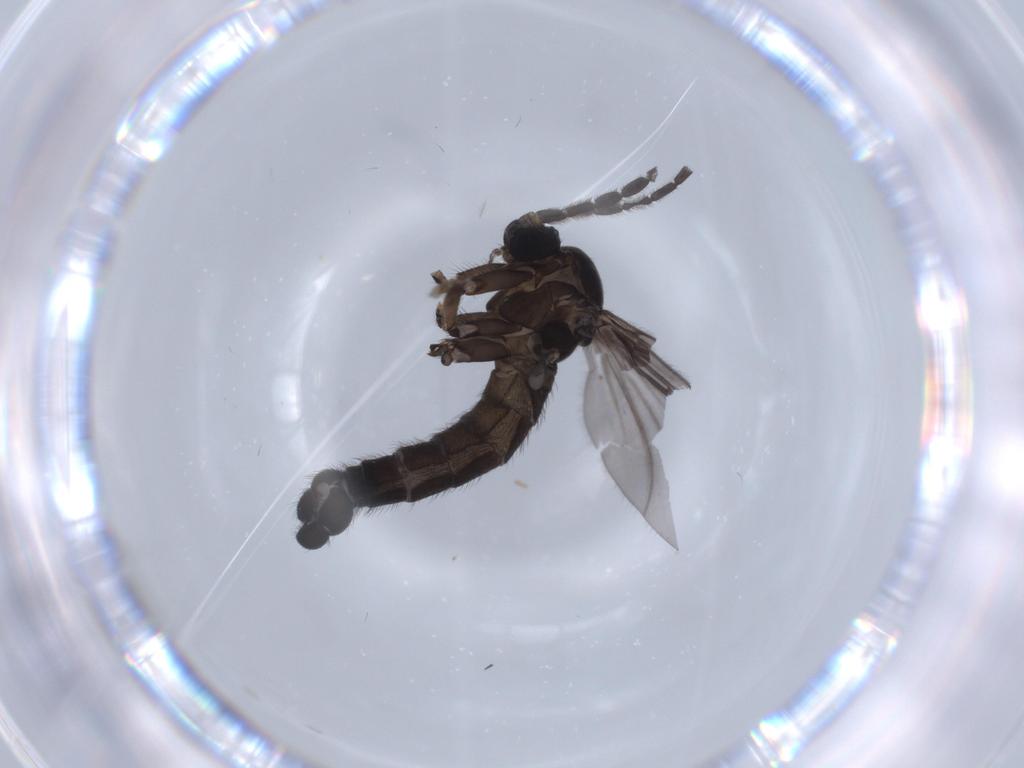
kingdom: Animalia
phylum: Arthropoda
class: Insecta
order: Diptera
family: Sciaridae
